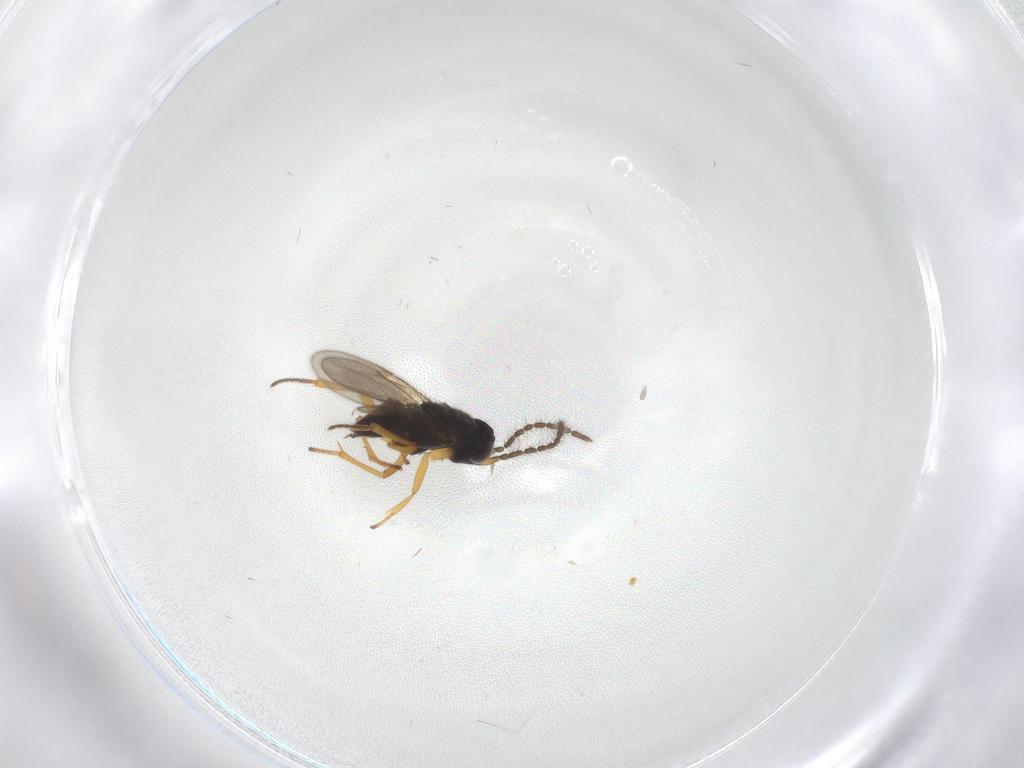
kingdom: Animalia
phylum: Arthropoda
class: Insecta
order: Hymenoptera
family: Formicidae
